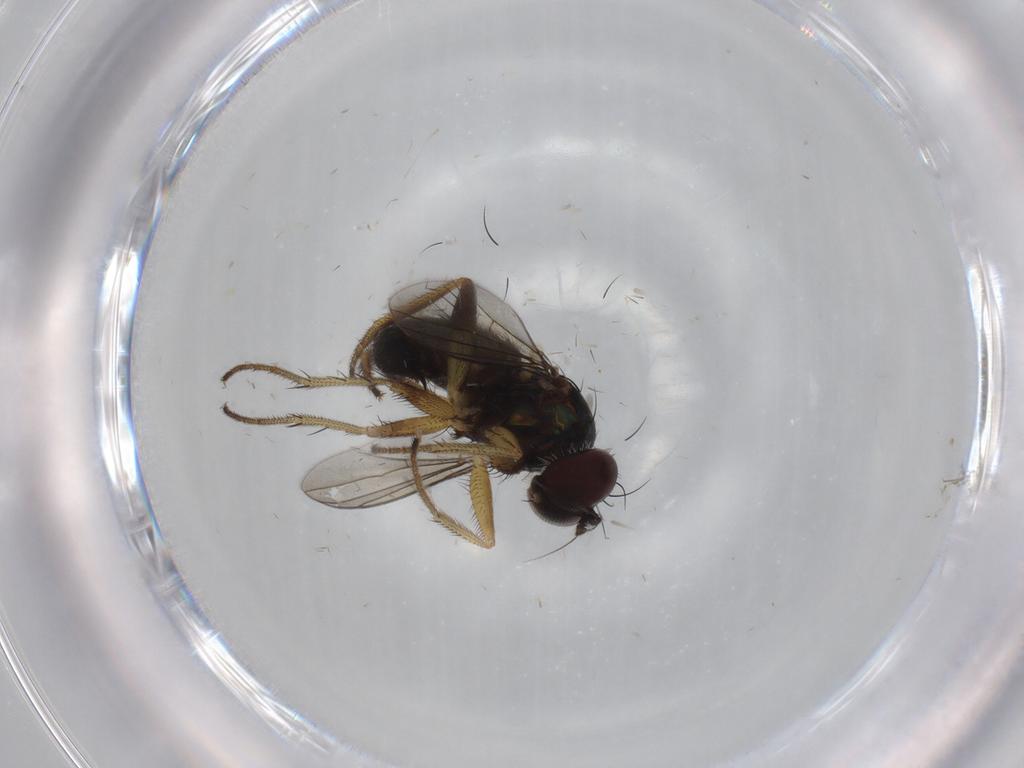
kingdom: Animalia
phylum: Arthropoda
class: Insecta
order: Diptera
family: Dolichopodidae
